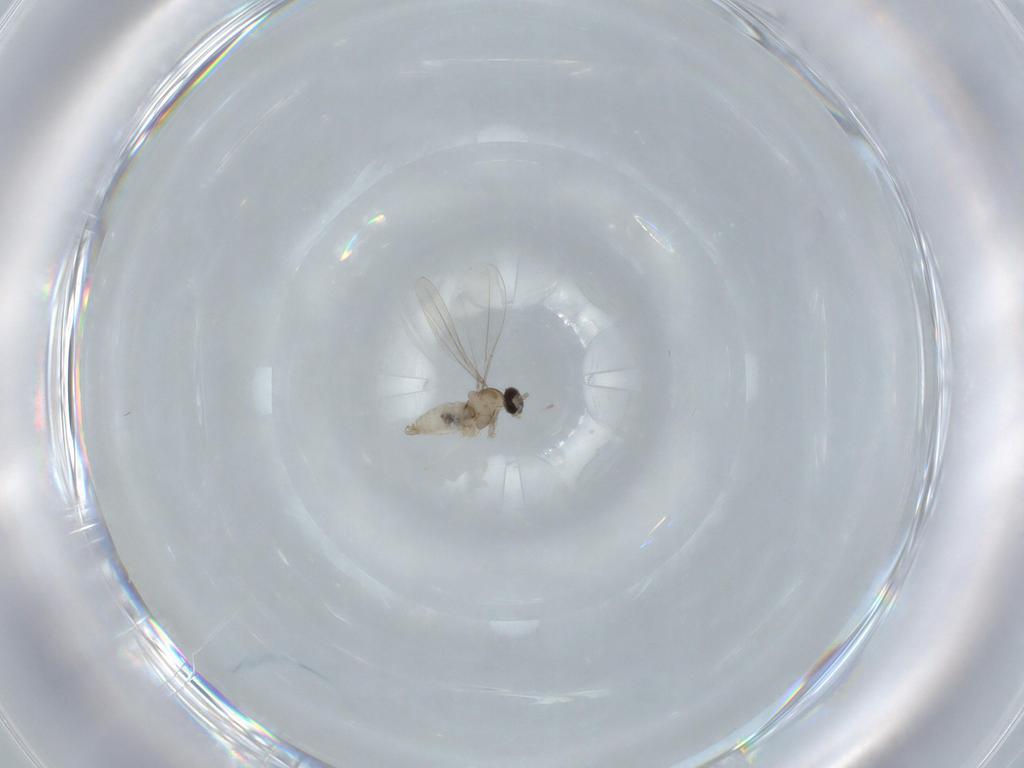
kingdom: Animalia
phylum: Arthropoda
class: Insecta
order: Diptera
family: Cecidomyiidae
